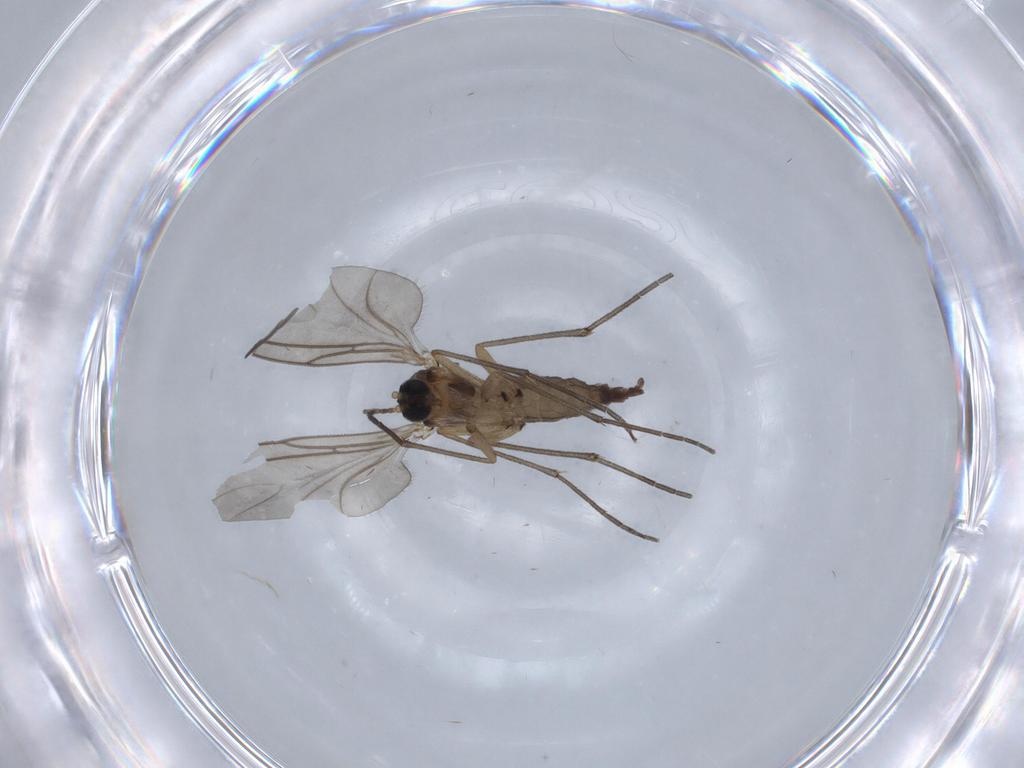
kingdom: Animalia
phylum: Arthropoda
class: Insecta
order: Diptera
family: Sciaridae
